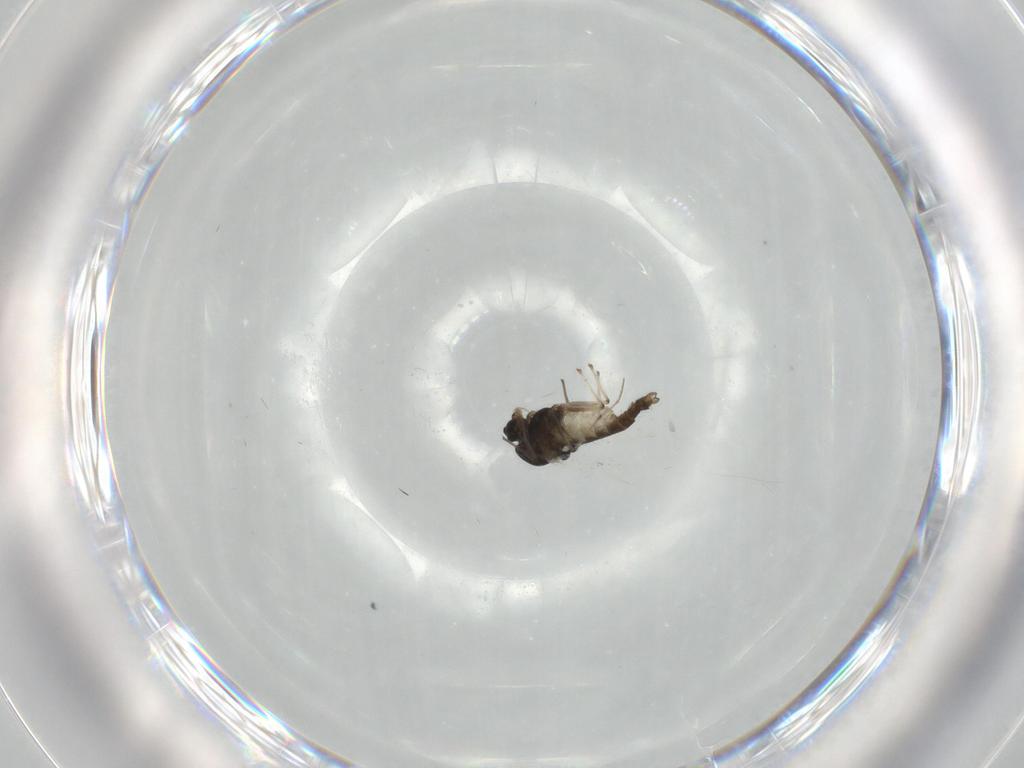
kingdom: Animalia
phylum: Arthropoda
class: Insecta
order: Diptera
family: Chironomidae
